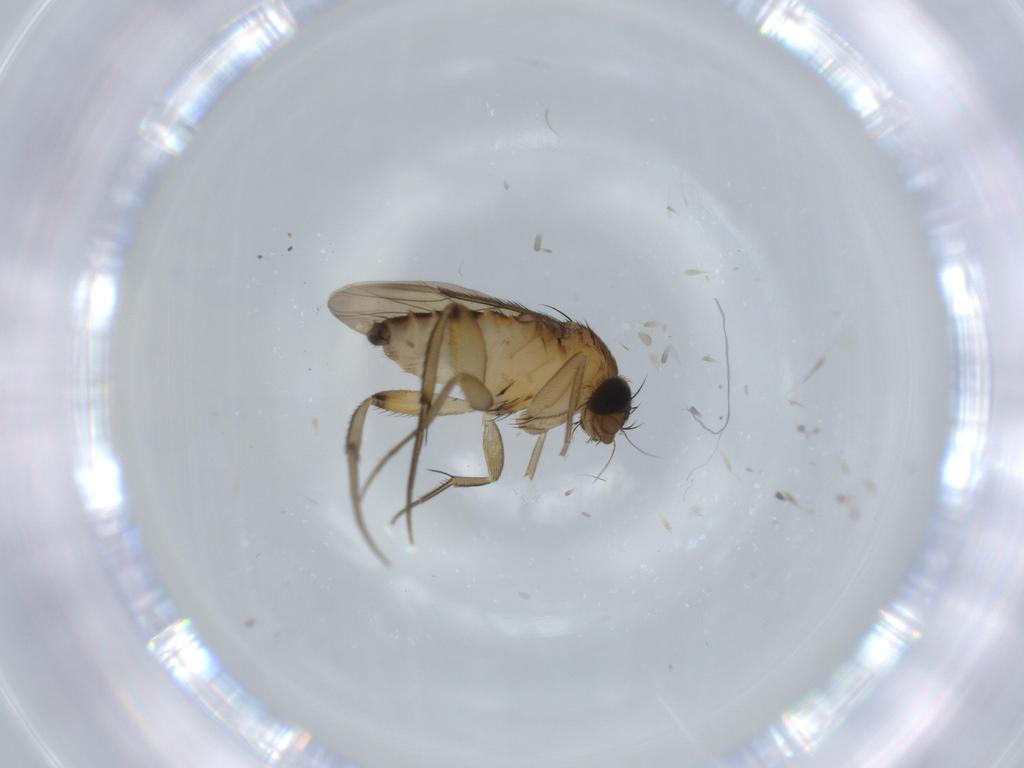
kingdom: Animalia
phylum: Arthropoda
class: Insecta
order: Diptera
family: Phoridae
